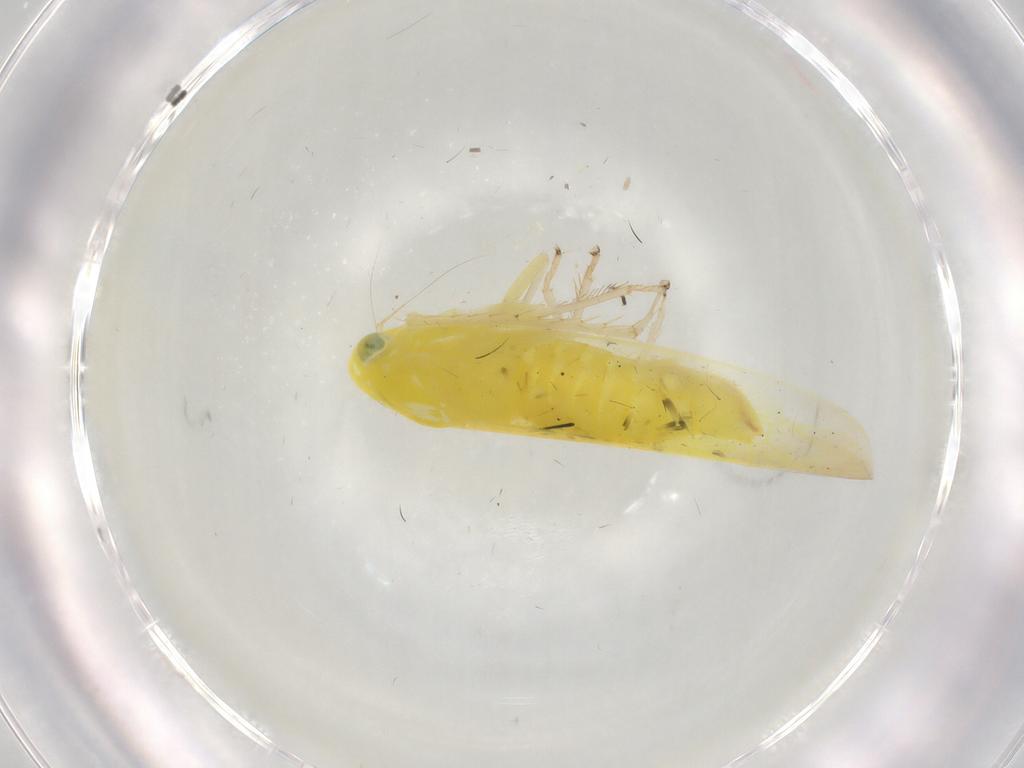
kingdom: Animalia
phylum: Arthropoda
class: Insecta
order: Hemiptera
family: Cicadellidae
